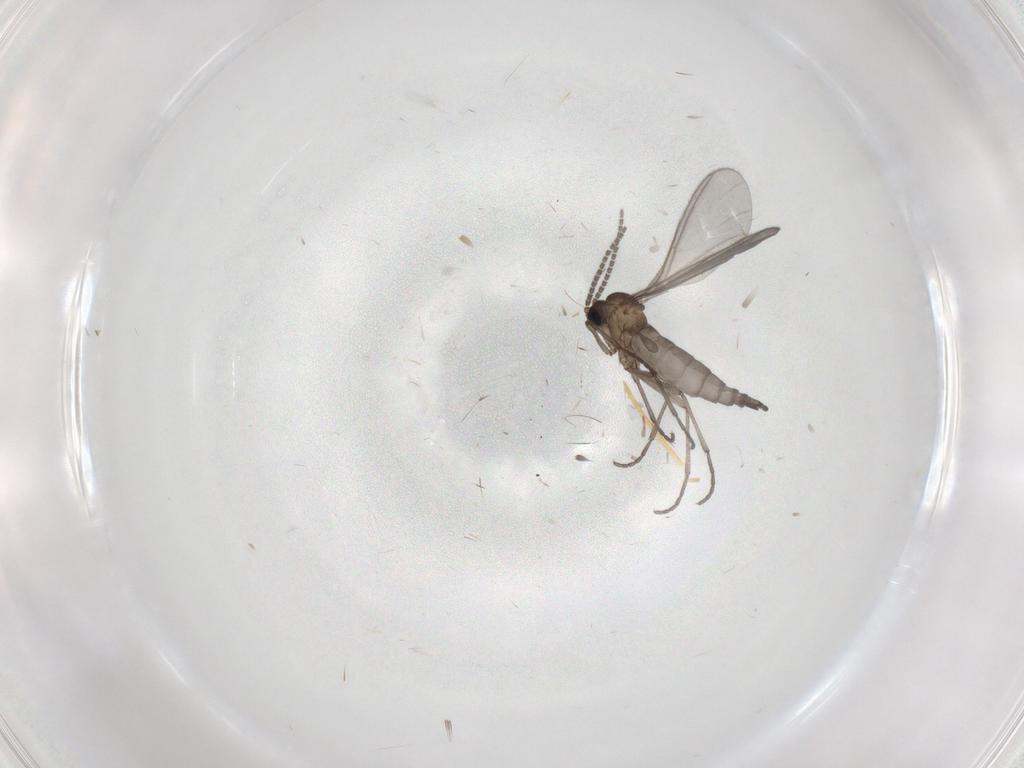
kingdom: Animalia
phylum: Arthropoda
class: Insecta
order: Diptera
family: Sciaridae
